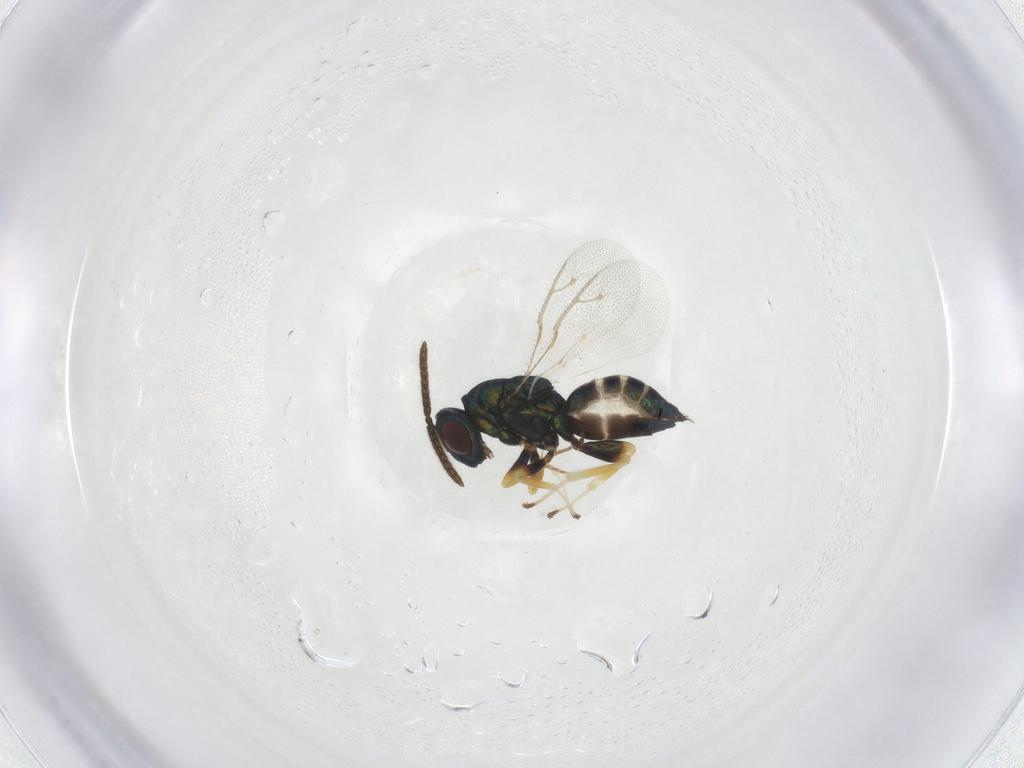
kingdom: Animalia
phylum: Arthropoda
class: Insecta
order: Hymenoptera
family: Pteromalidae
